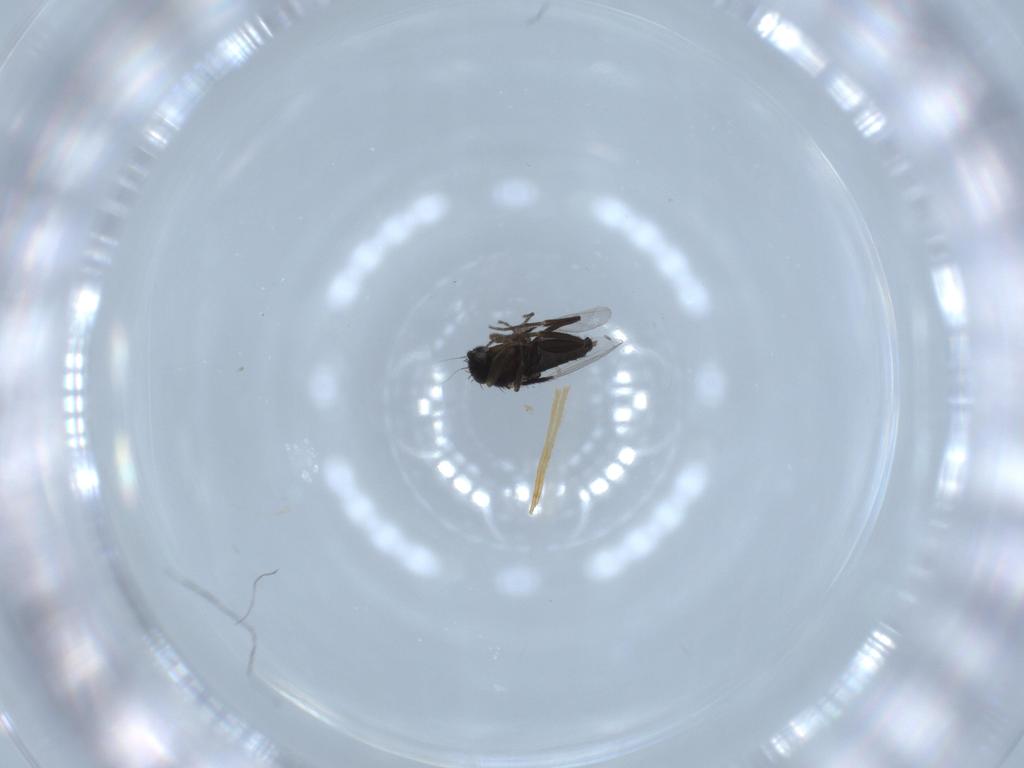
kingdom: Animalia
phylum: Arthropoda
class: Insecta
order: Diptera
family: Phoridae
